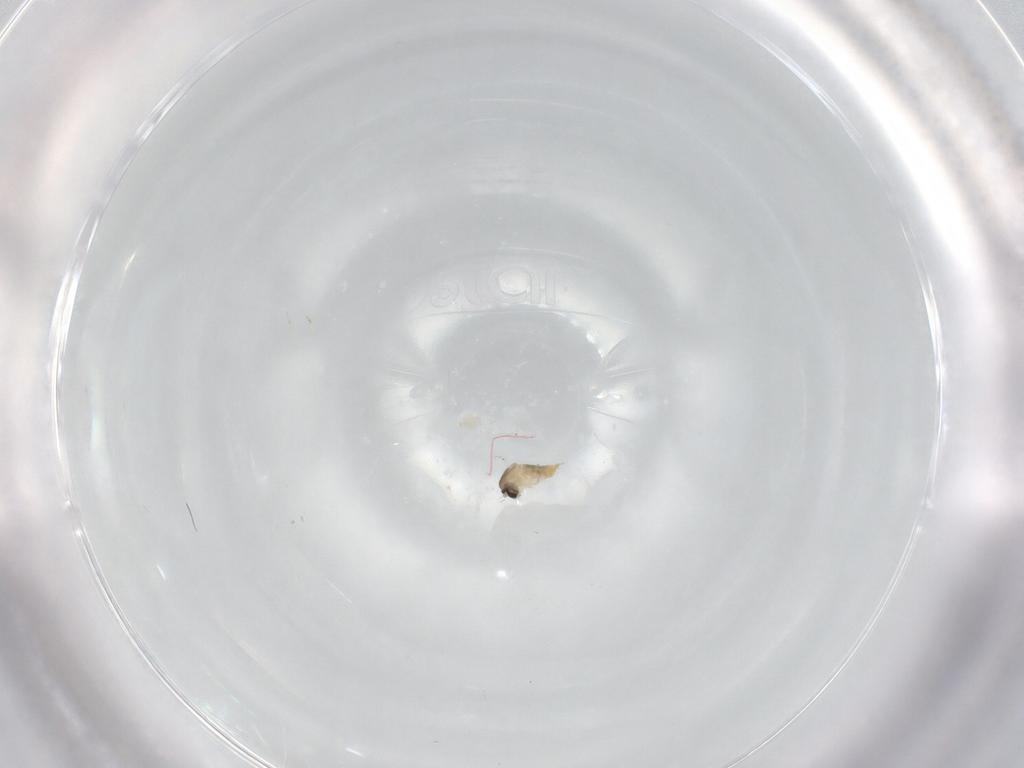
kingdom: Animalia
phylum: Arthropoda
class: Insecta
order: Diptera
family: Cecidomyiidae
